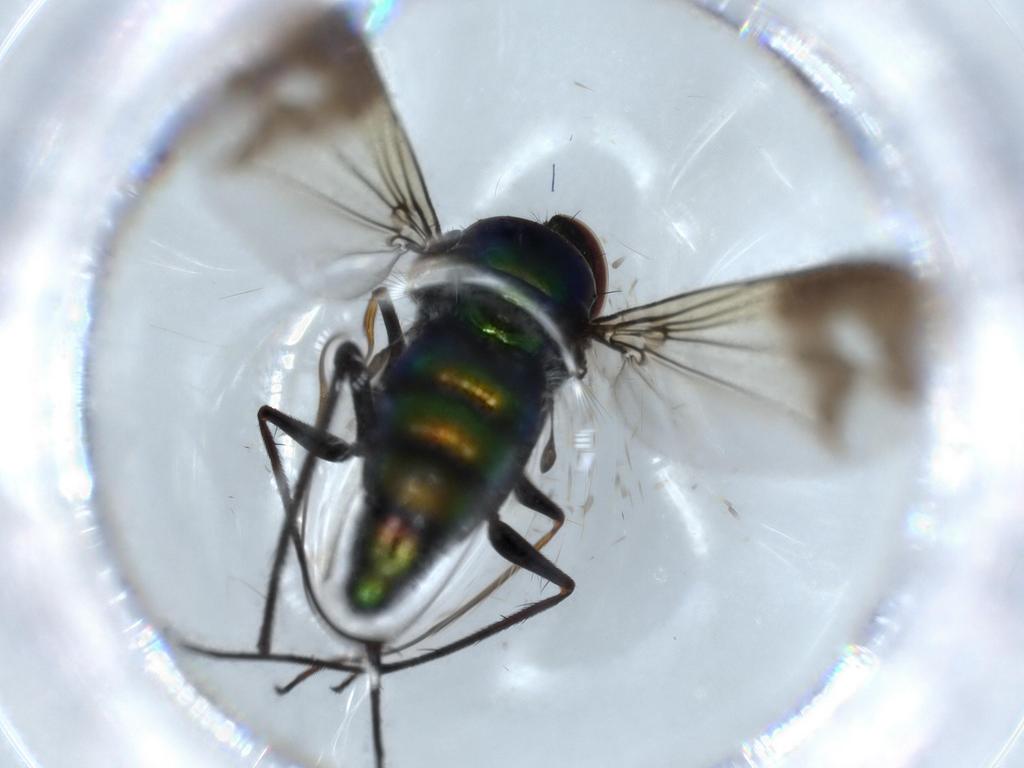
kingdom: Animalia
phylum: Arthropoda
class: Insecta
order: Diptera
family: Dolichopodidae
